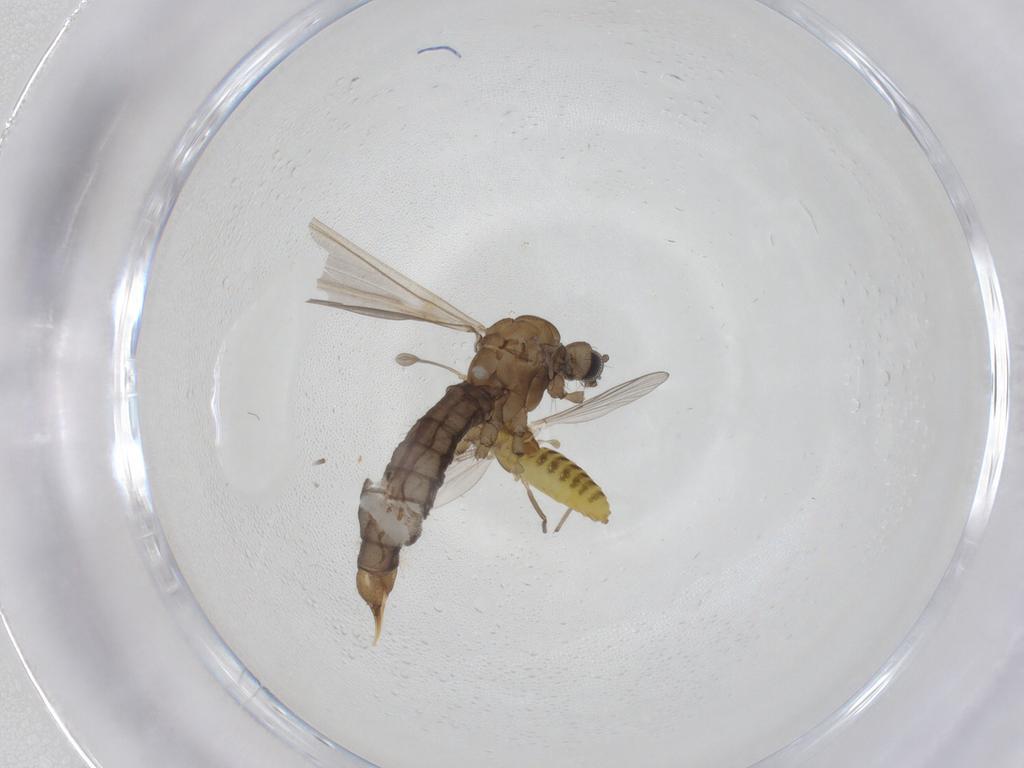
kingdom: Animalia
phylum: Arthropoda
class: Insecta
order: Diptera
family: Limoniidae
